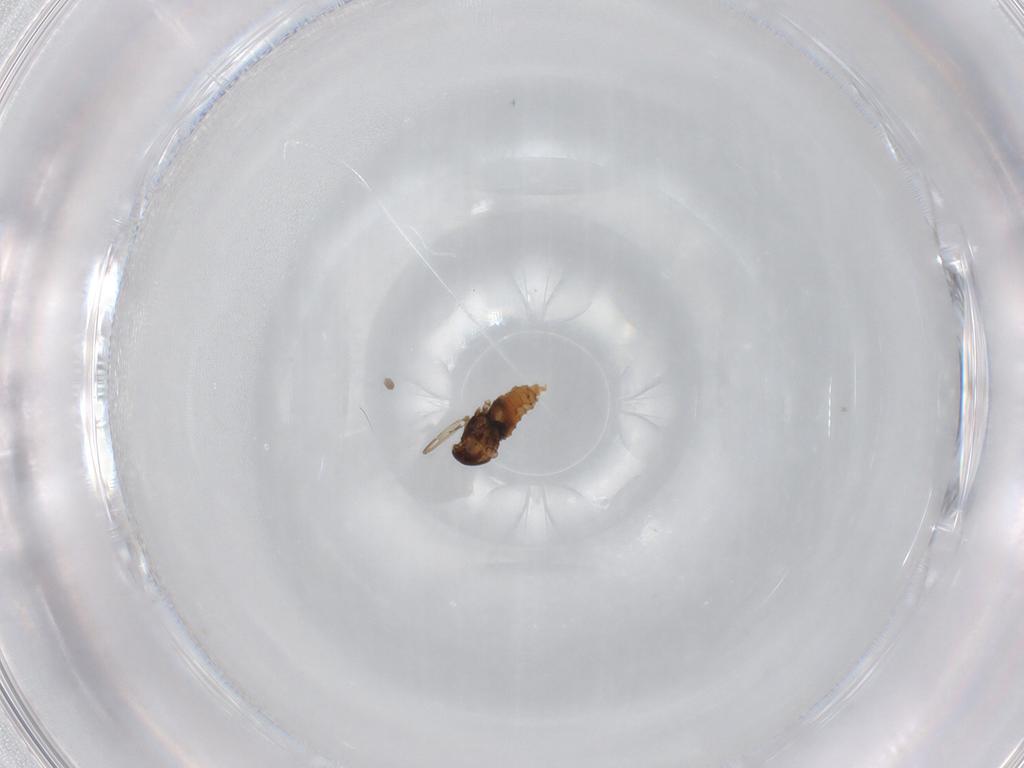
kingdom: Animalia
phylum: Arthropoda
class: Insecta
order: Diptera
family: Cecidomyiidae
